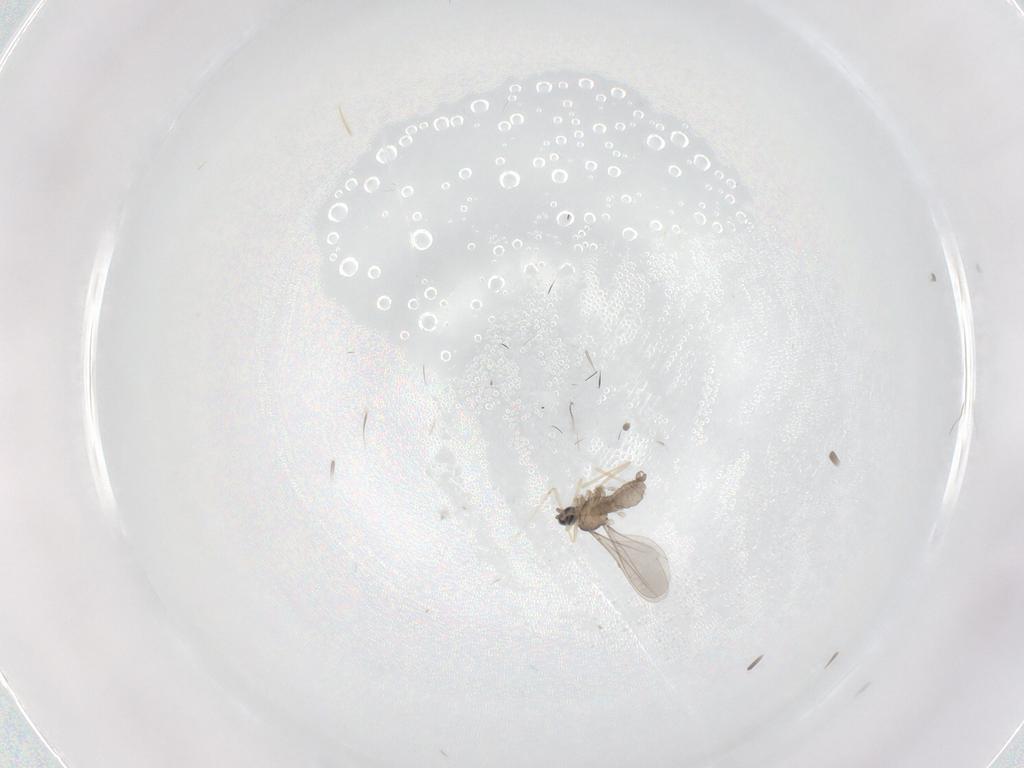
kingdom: Animalia
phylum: Arthropoda
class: Insecta
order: Diptera
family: Cecidomyiidae
